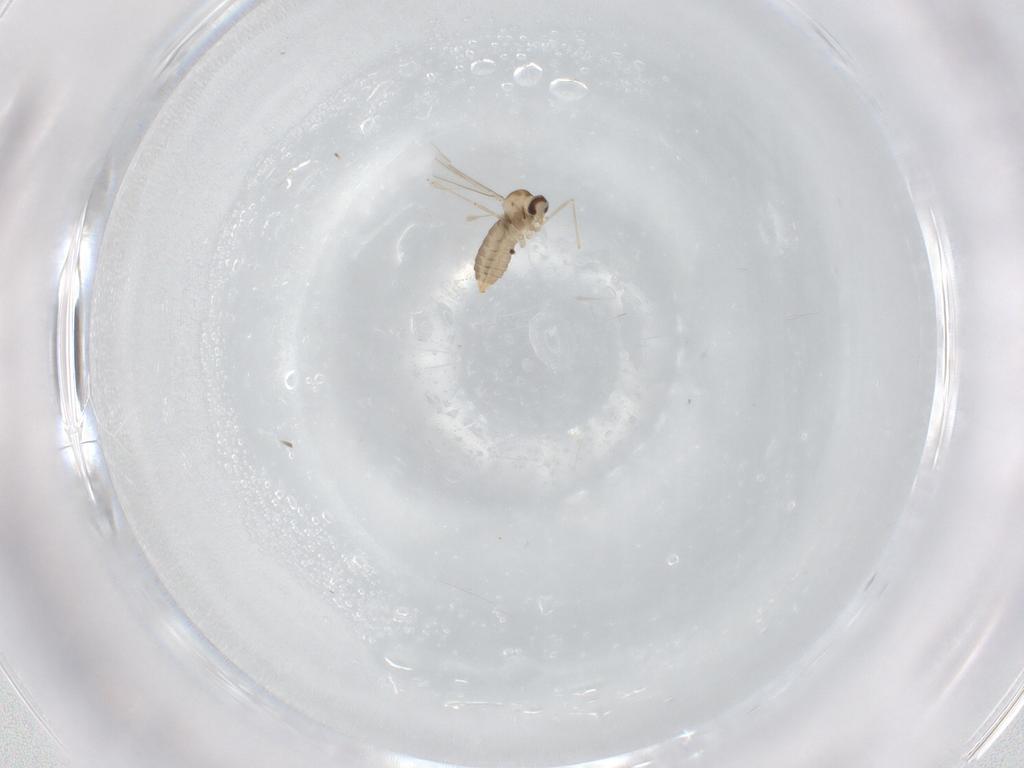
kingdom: Animalia
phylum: Arthropoda
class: Insecta
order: Diptera
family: Cecidomyiidae
